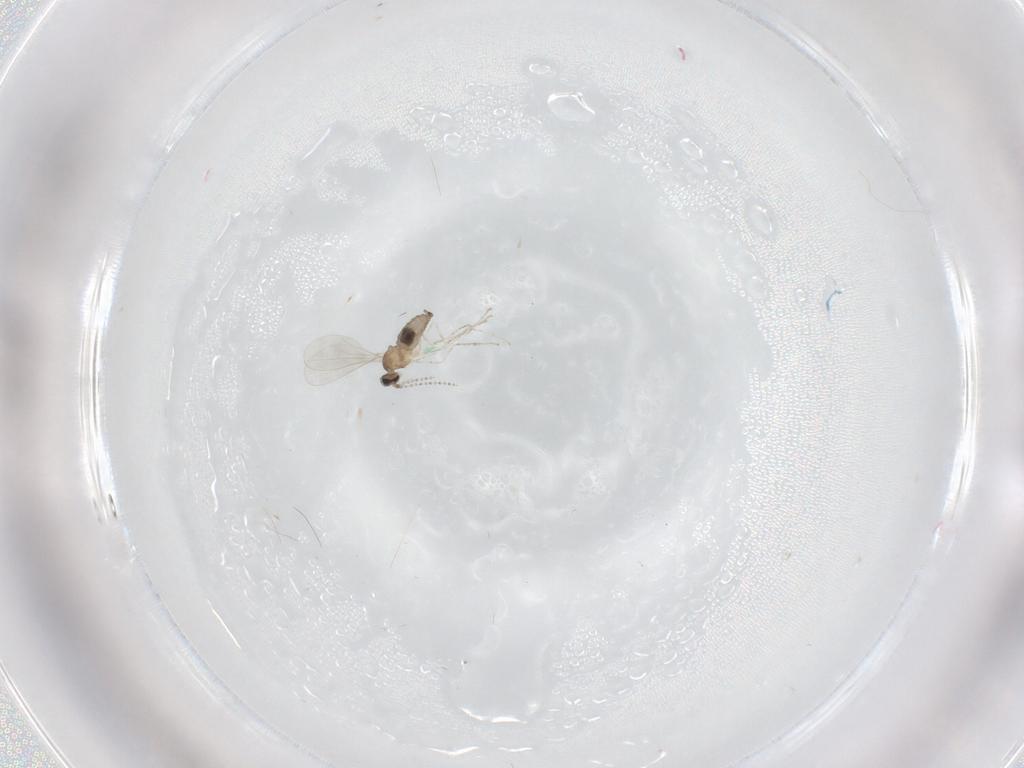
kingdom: Animalia
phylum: Arthropoda
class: Insecta
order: Diptera
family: Cecidomyiidae
